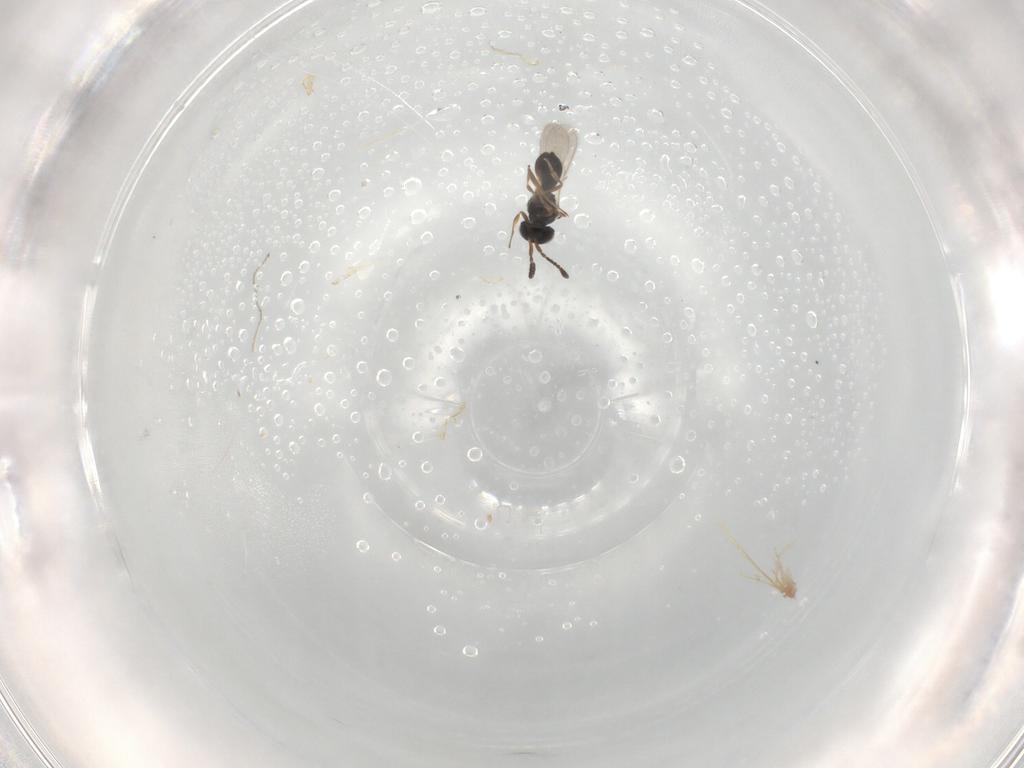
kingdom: Animalia
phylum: Arthropoda
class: Insecta
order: Hymenoptera
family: Scelionidae
